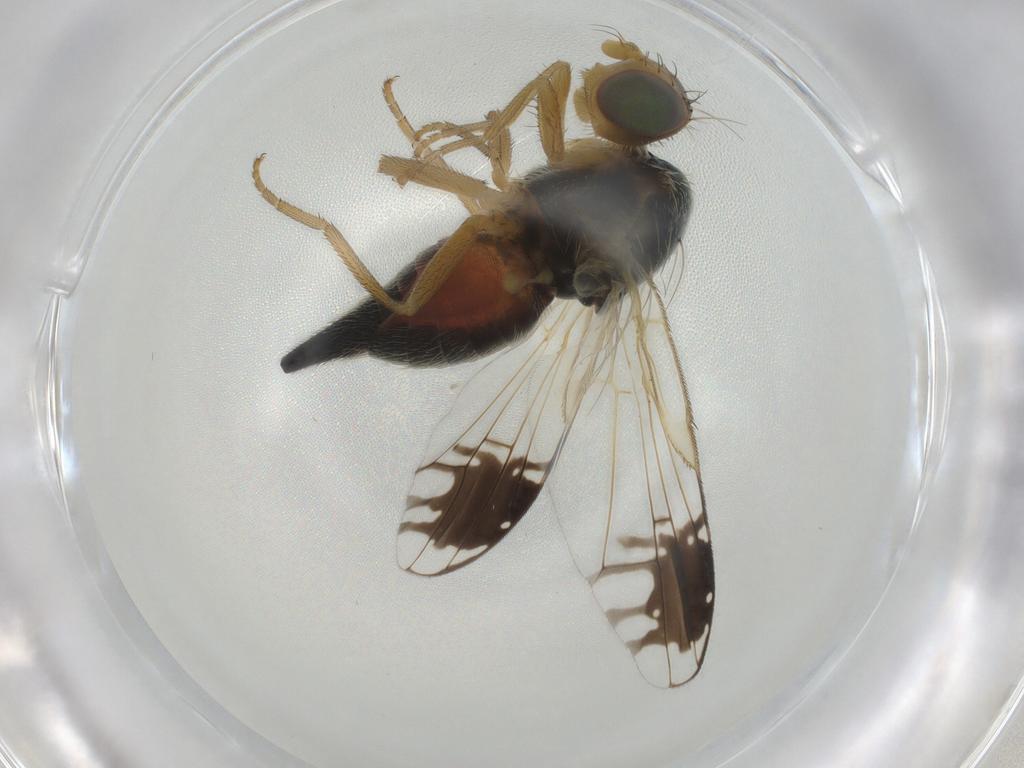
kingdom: Animalia
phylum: Arthropoda
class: Insecta
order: Diptera
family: Tephritidae
